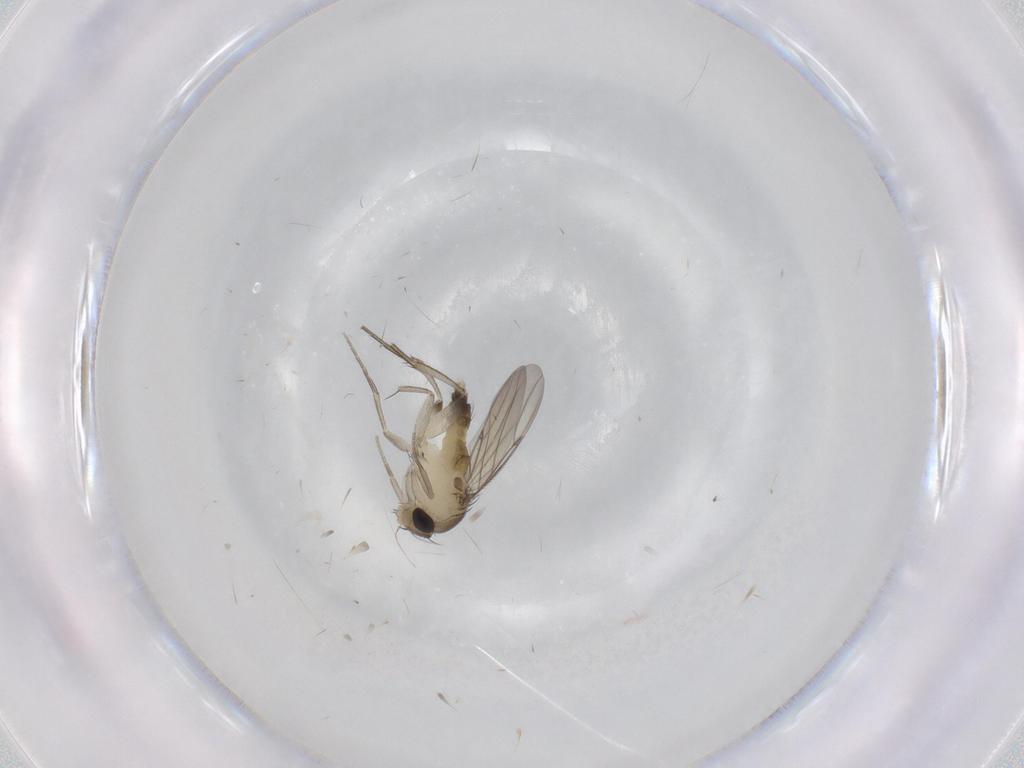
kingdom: Animalia
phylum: Arthropoda
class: Insecta
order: Diptera
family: Phoridae
